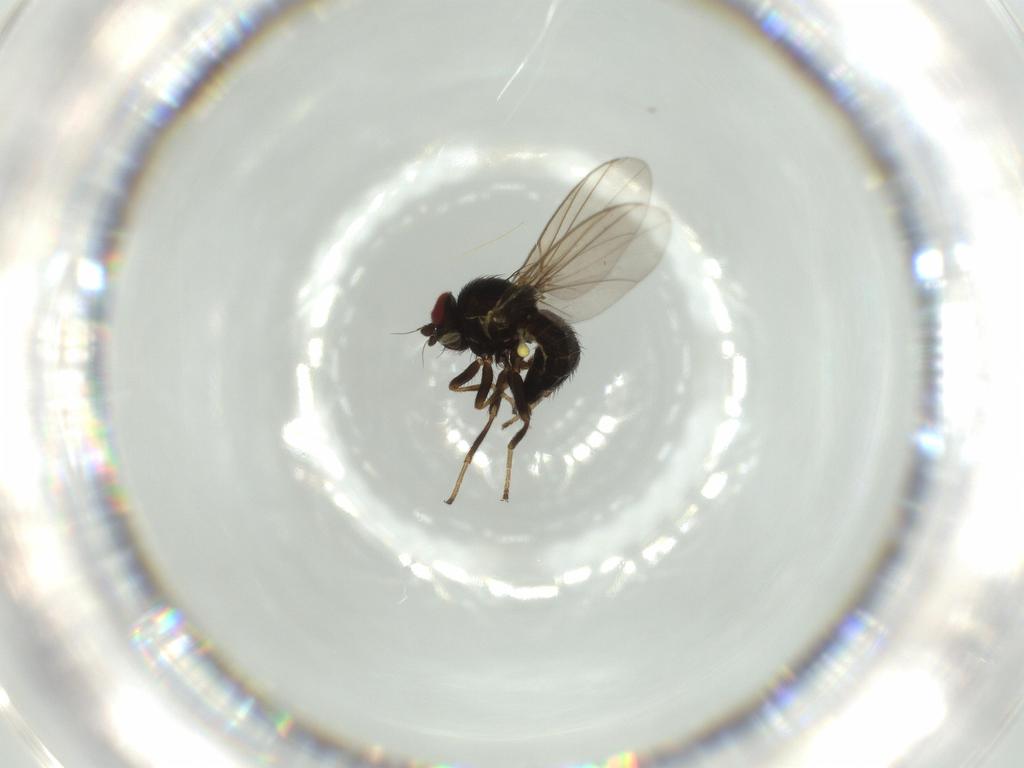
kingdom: Animalia
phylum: Arthropoda
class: Insecta
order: Diptera
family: Agromyzidae
